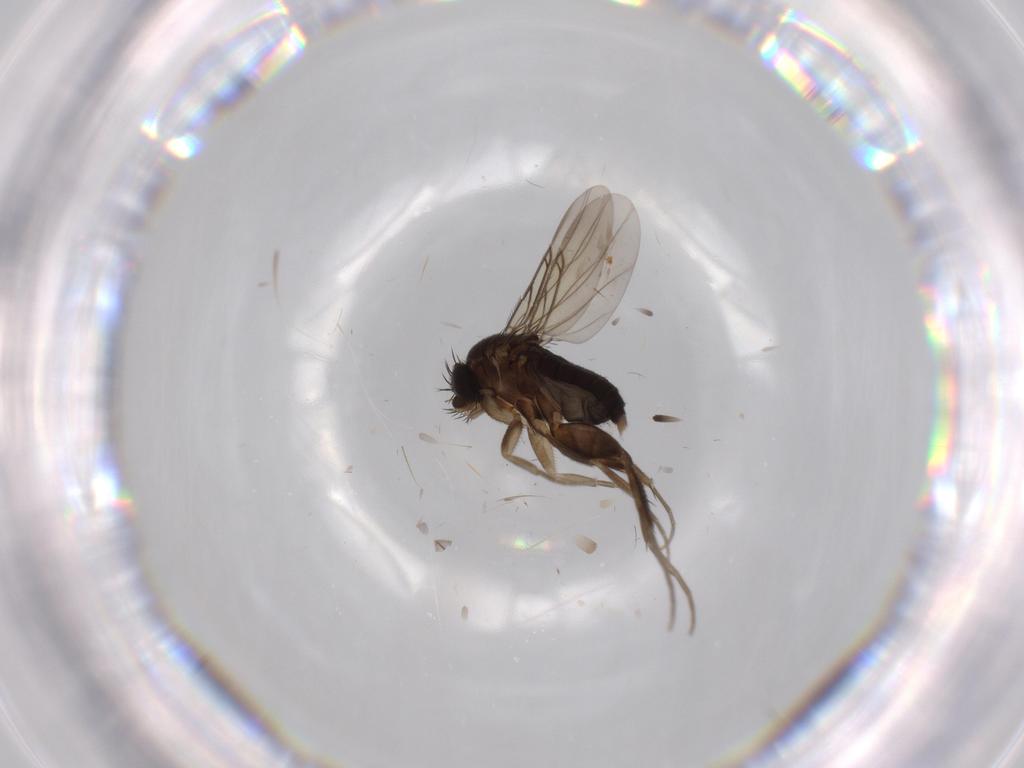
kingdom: Animalia
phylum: Arthropoda
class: Insecta
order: Diptera
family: Phoridae
